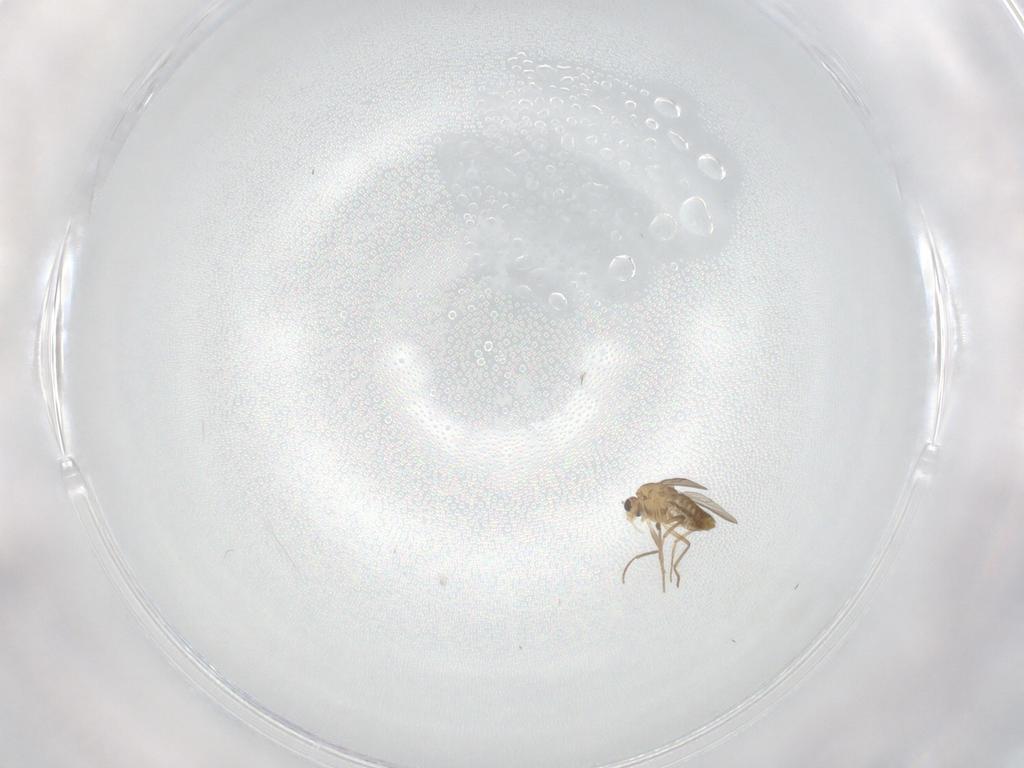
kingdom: Animalia
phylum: Arthropoda
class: Insecta
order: Diptera
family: Chironomidae
